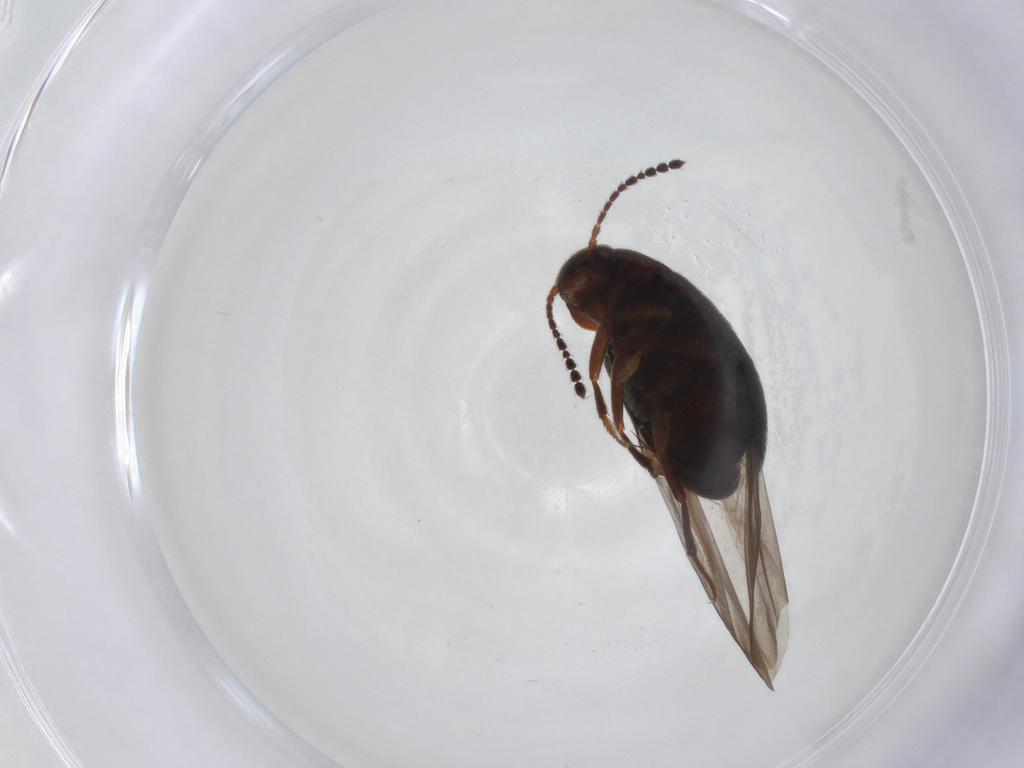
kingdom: Animalia
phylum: Arthropoda
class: Insecta
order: Coleoptera
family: Leiodidae
